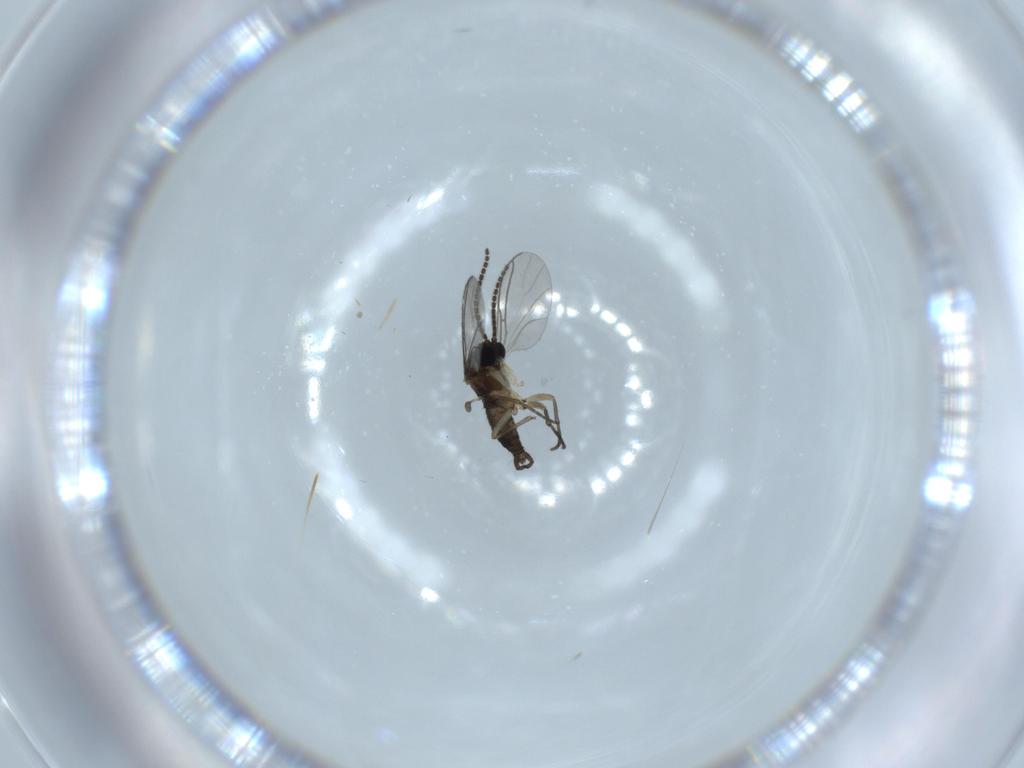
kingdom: Animalia
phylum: Arthropoda
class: Insecta
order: Diptera
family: Sciaridae
